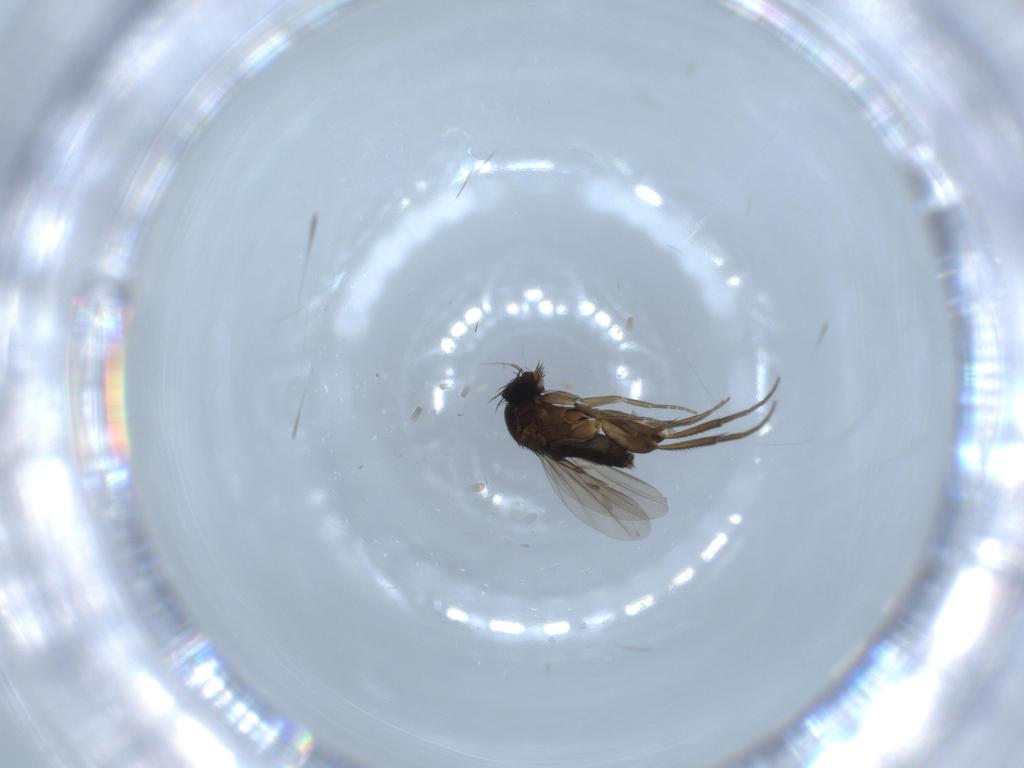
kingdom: Animalia
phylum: Arthropoda
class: Insecta
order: Diptera
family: Phoridae
